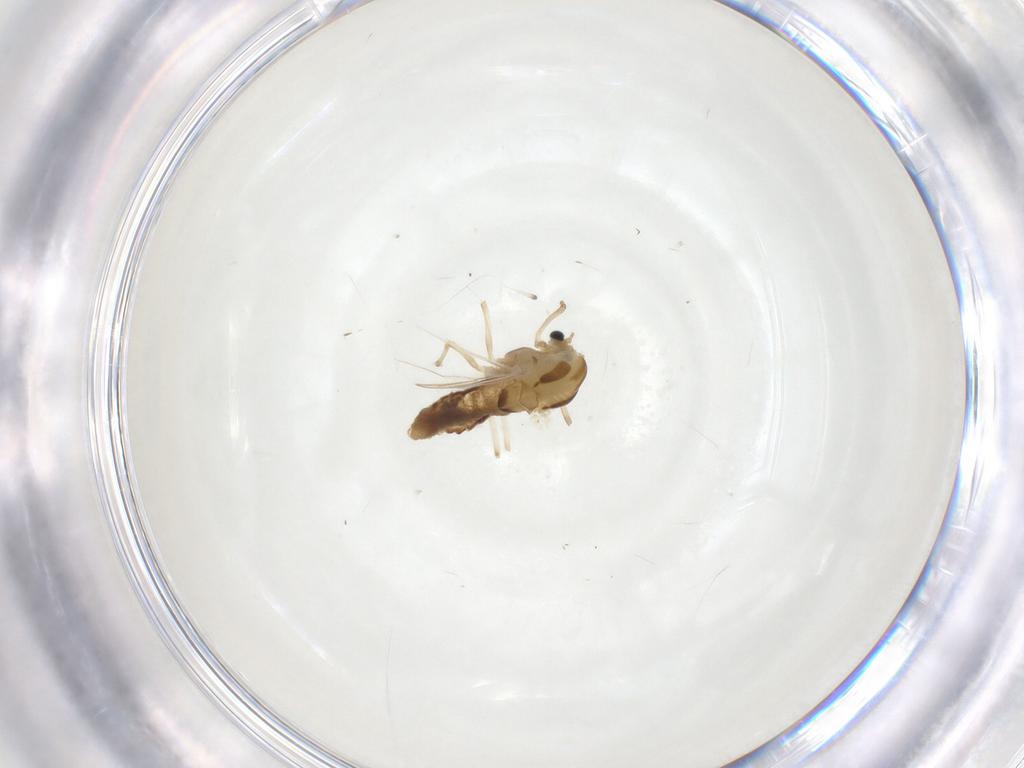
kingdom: Animalia
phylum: Arthropoda
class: Insecta
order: Diptera
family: Chironomidae
